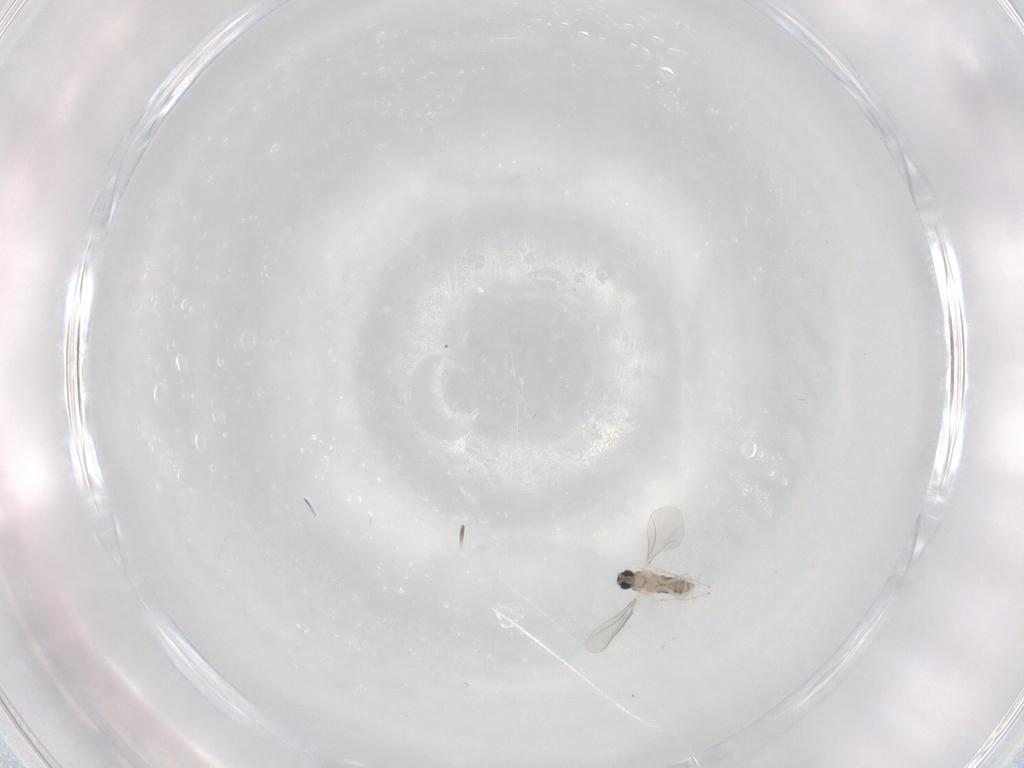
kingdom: Animalia
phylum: Arthropoda
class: Insecta
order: Diptera
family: Cecidomyiidae
